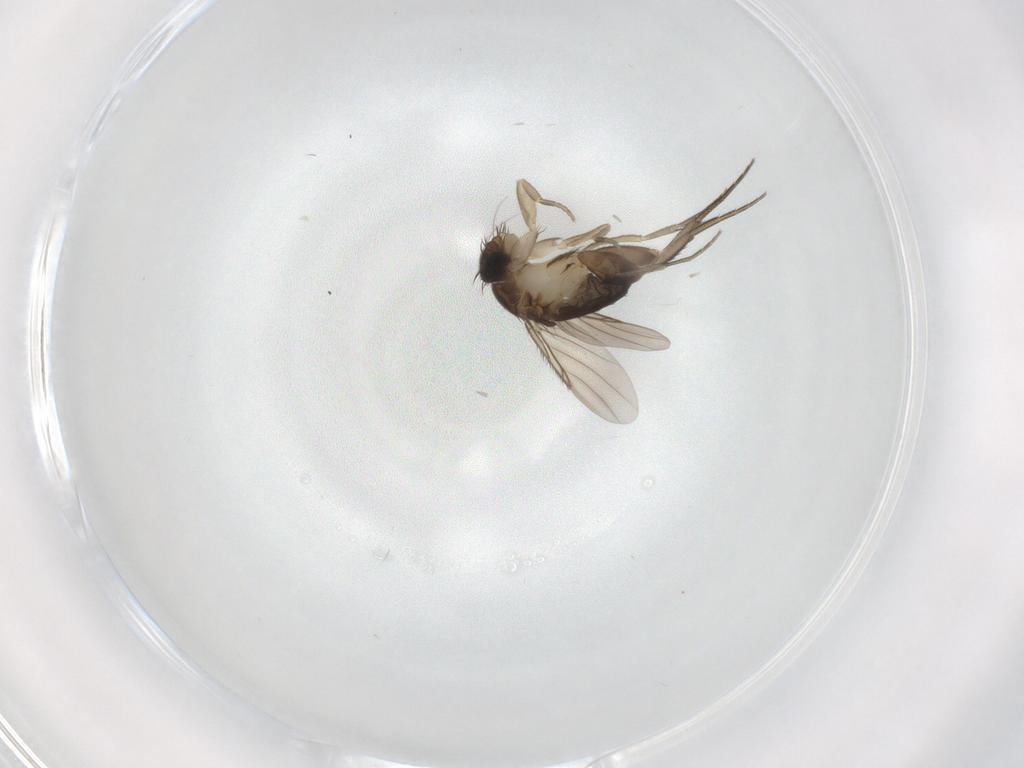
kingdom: Animalia
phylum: Arthropoda
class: Insecta
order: Diptera
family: Phoridae
